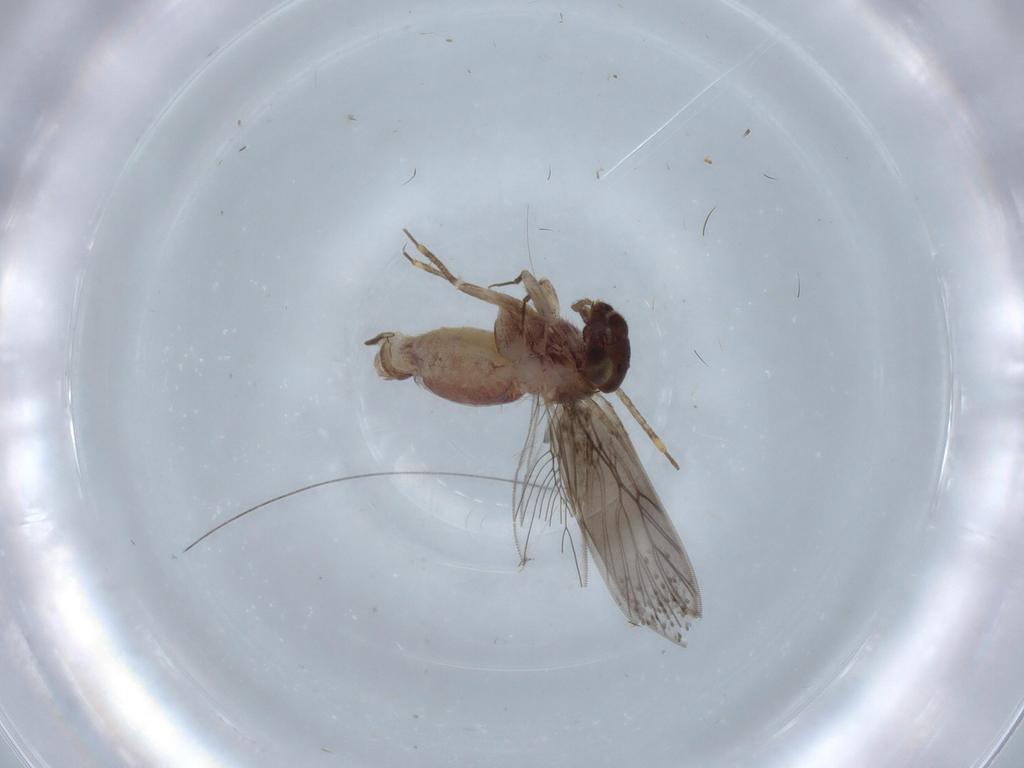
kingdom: Animalia
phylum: Arthropoda
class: Insecta
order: Psocodea
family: Lepidopsocidae
